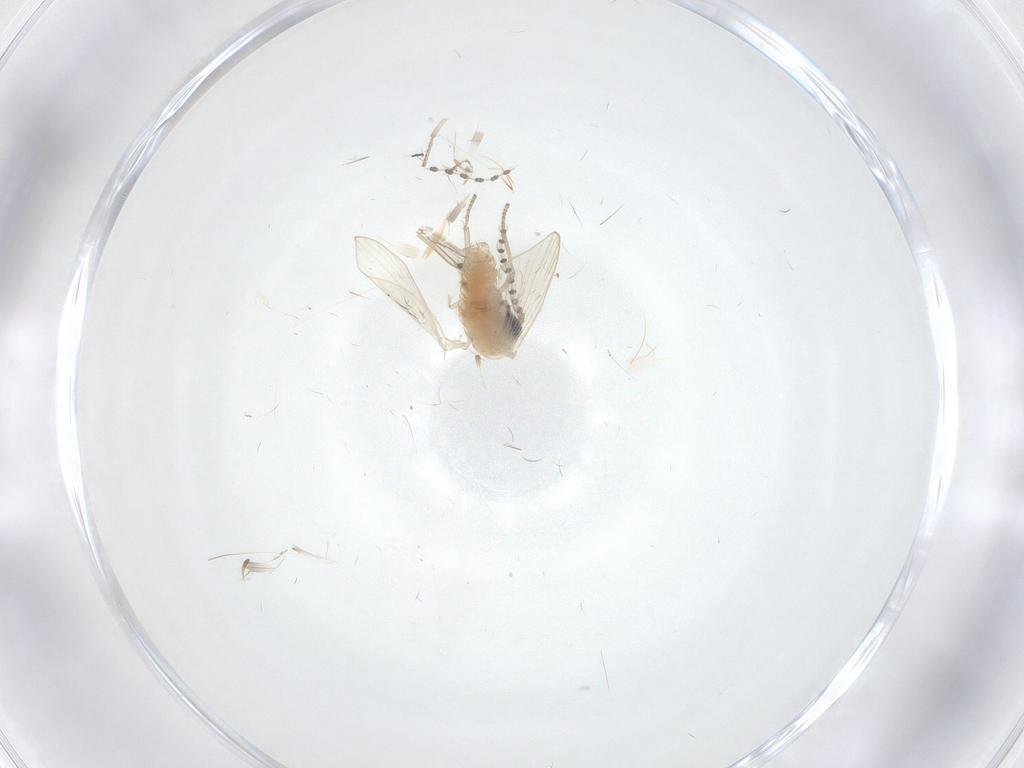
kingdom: Animalia
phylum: Arthropoda
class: Insecta
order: Diptera
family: Psychodidae
